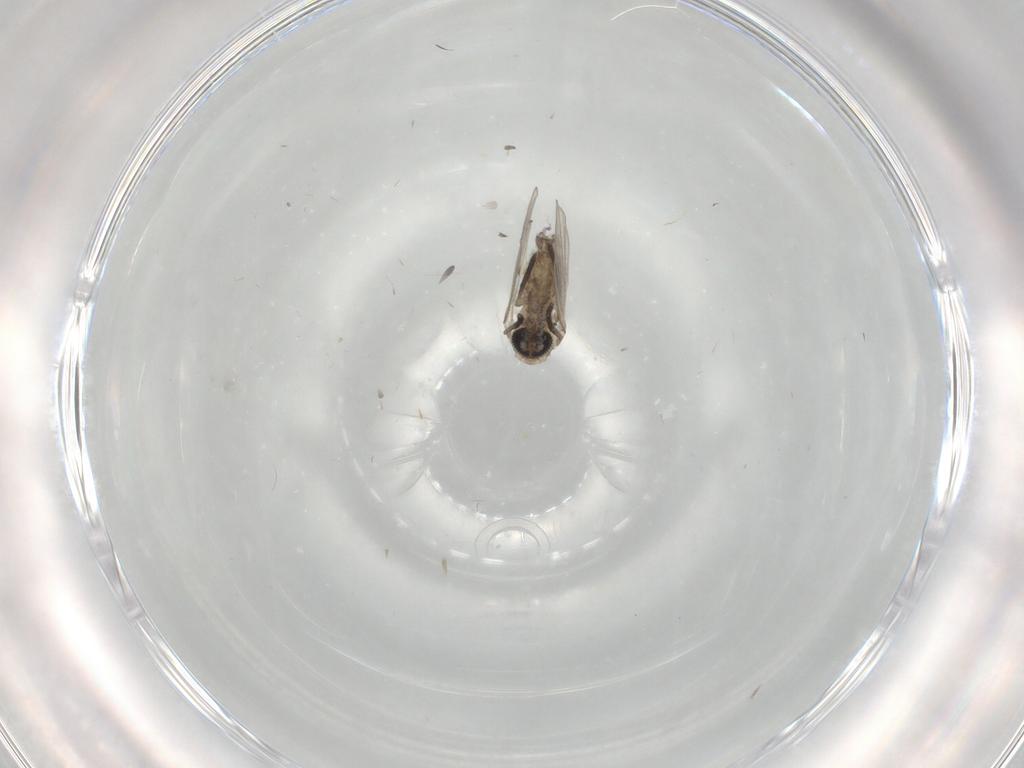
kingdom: Animalia
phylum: Arthropoda
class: Insecta
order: Diptera
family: Psychodidae
